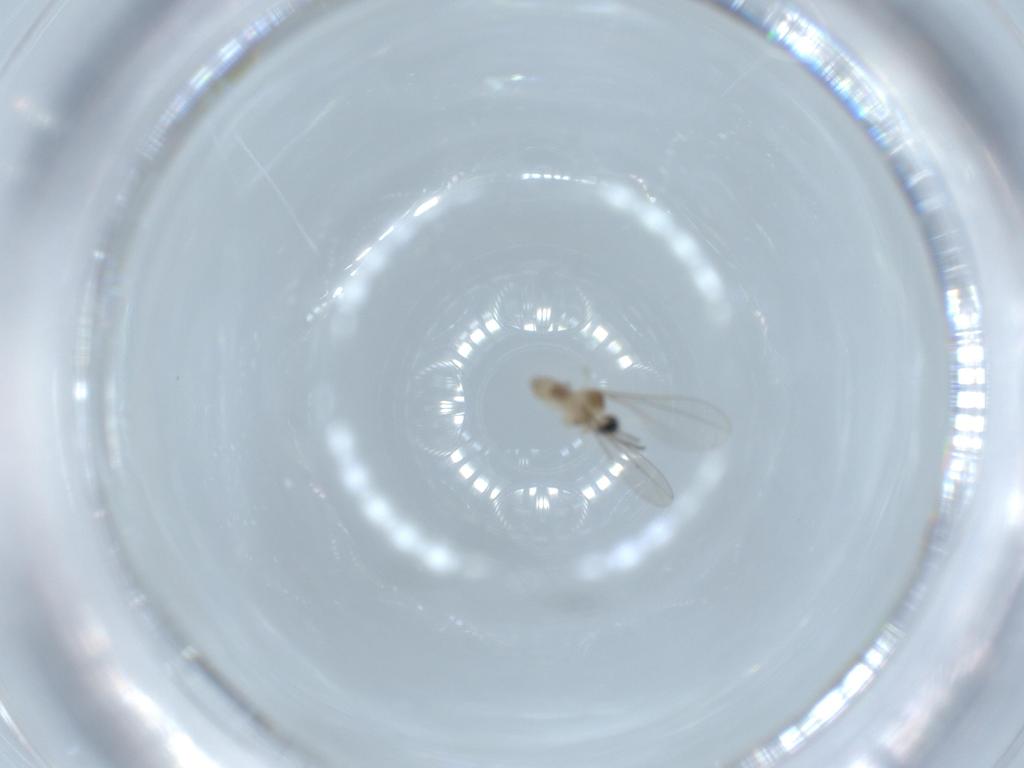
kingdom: Animalia
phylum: Arthropoda
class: Insecta
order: Diptera
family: Cecidomyiidae
